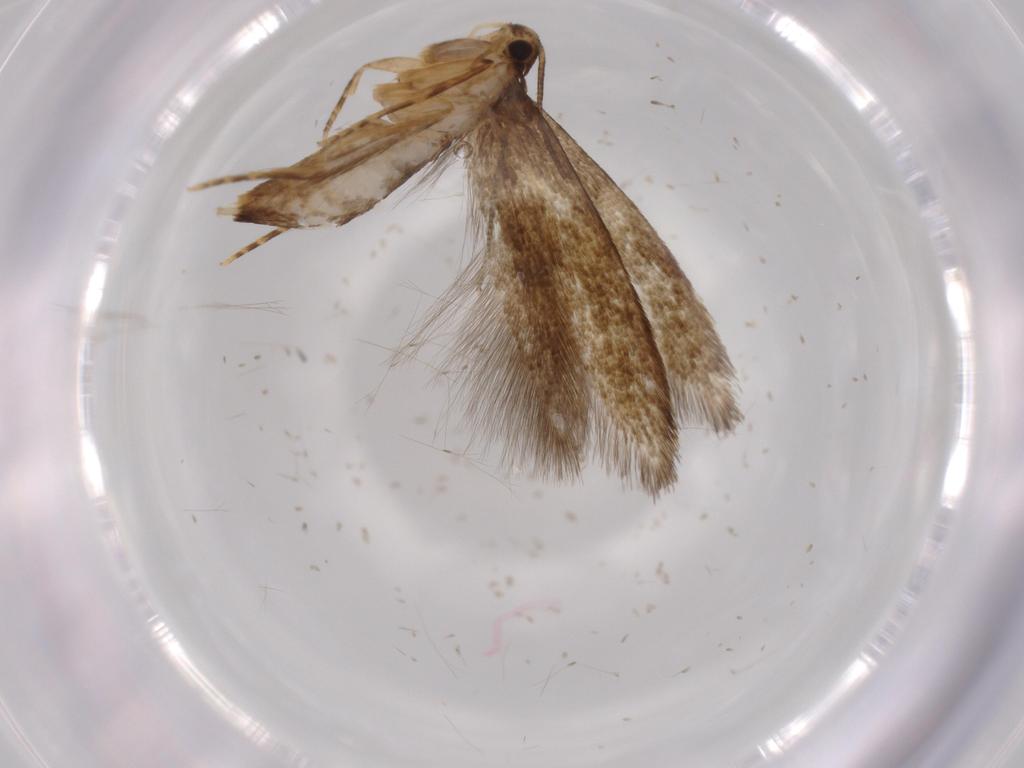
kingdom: Animalia
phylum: Arthropoda
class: Insecta
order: Lepidoptera
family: Tineidae
